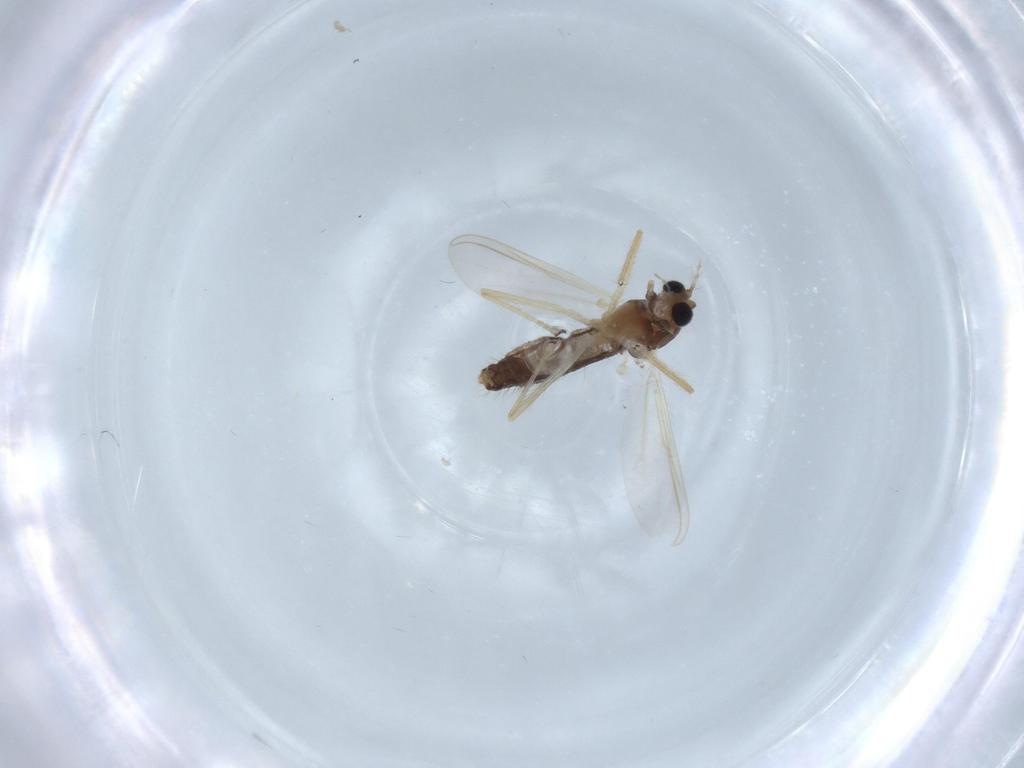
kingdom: Animalia
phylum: Arthropoda
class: Insecta
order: Diptera
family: Chironomidae
